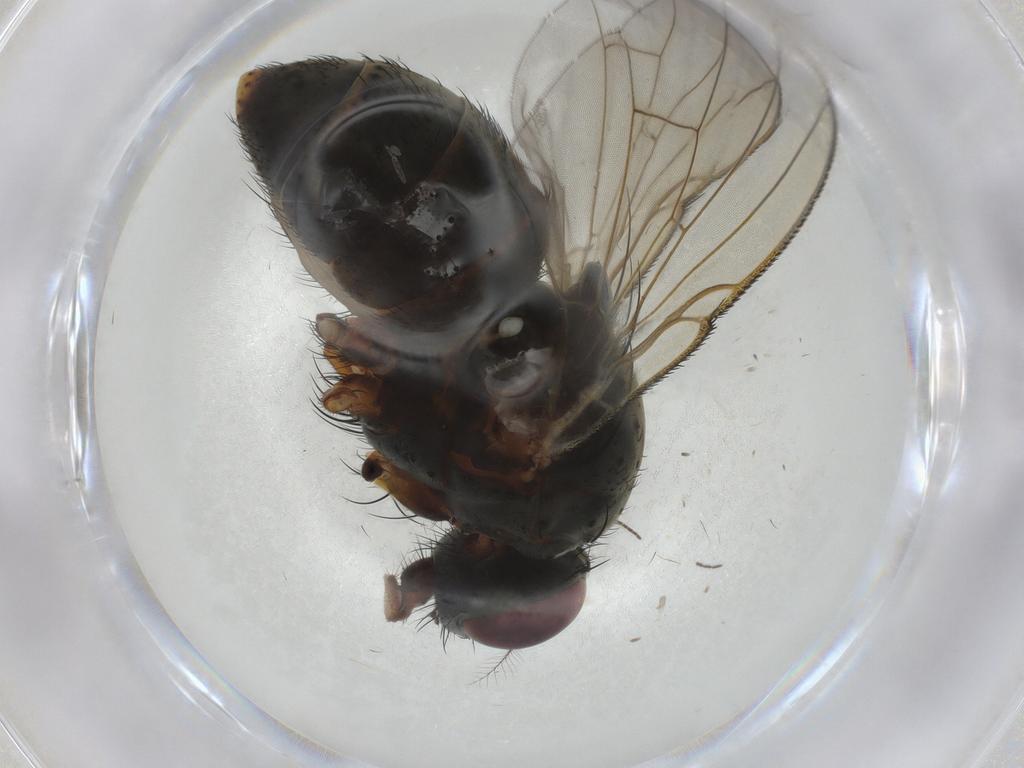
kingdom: Animalia
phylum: Arthropoda
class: Insecta
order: Diptera
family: Muscidae
